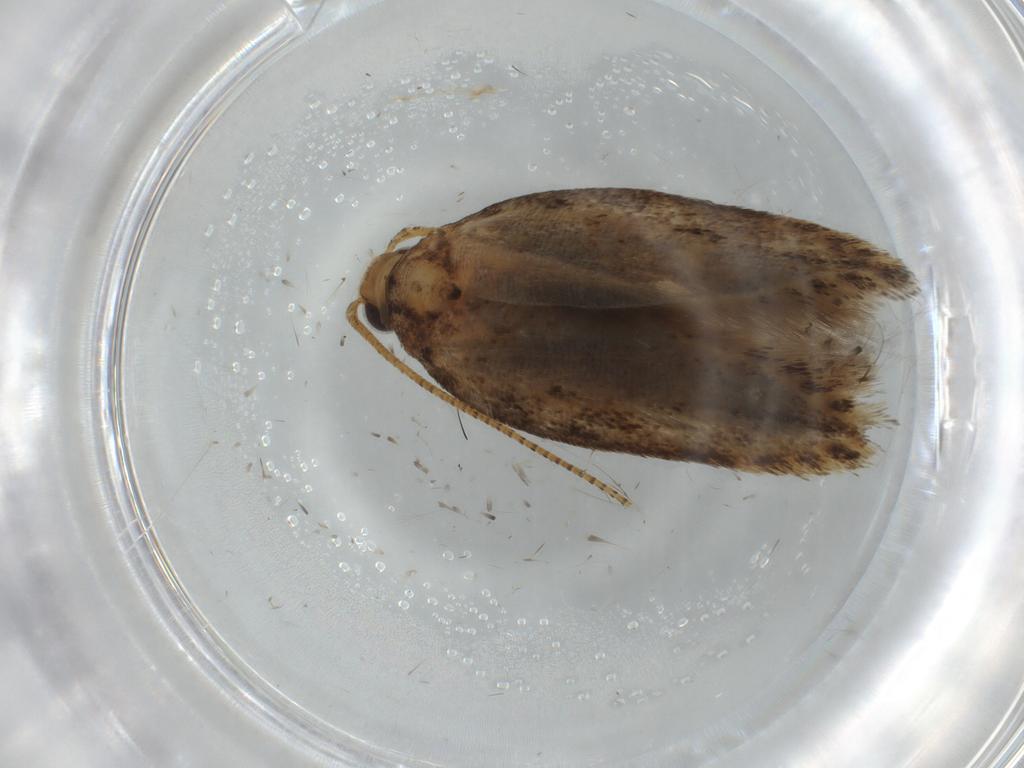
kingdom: Animalia
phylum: Arthropoda
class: Insecta
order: Lepidoptera
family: Gelechiidae
